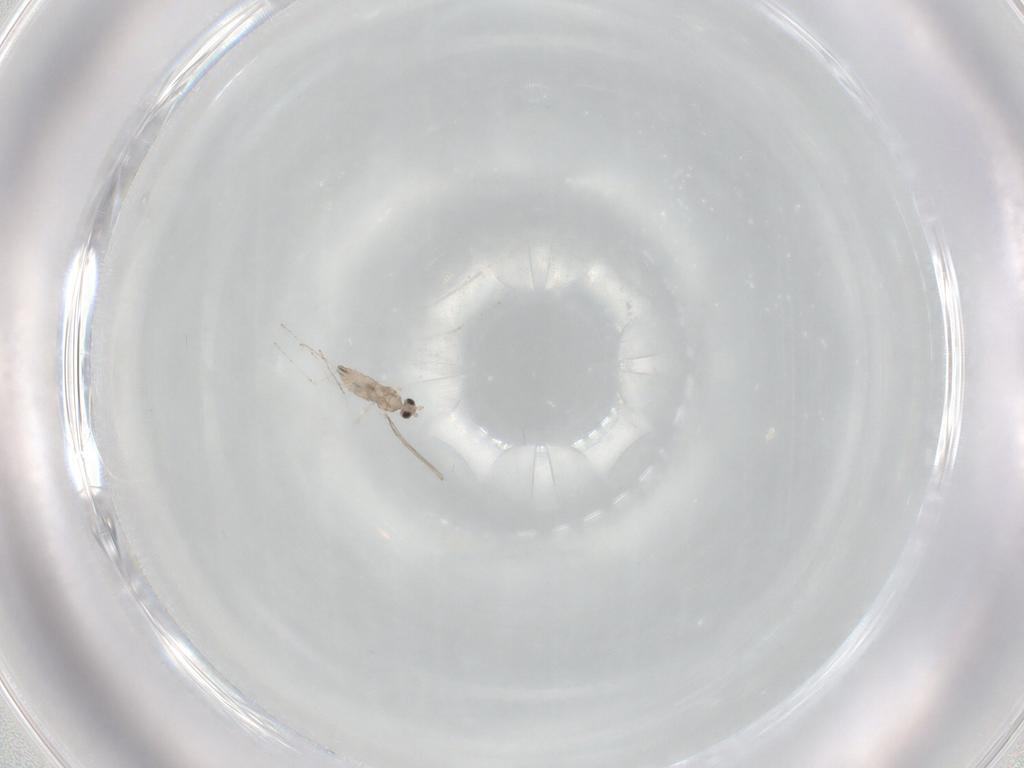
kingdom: Animalia
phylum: Arthropoda
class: Insecta
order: Diptera
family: Cecidomyiidae
